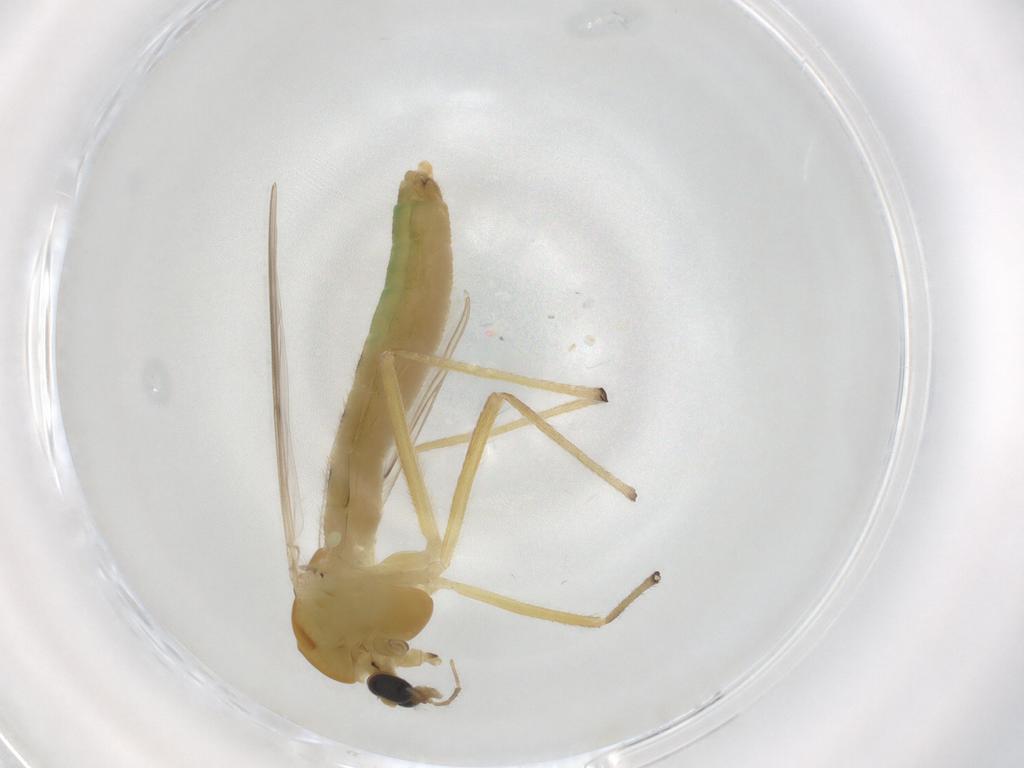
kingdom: Animalia
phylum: Arthropoda
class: Insecta
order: Diptera
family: Chironomidae
